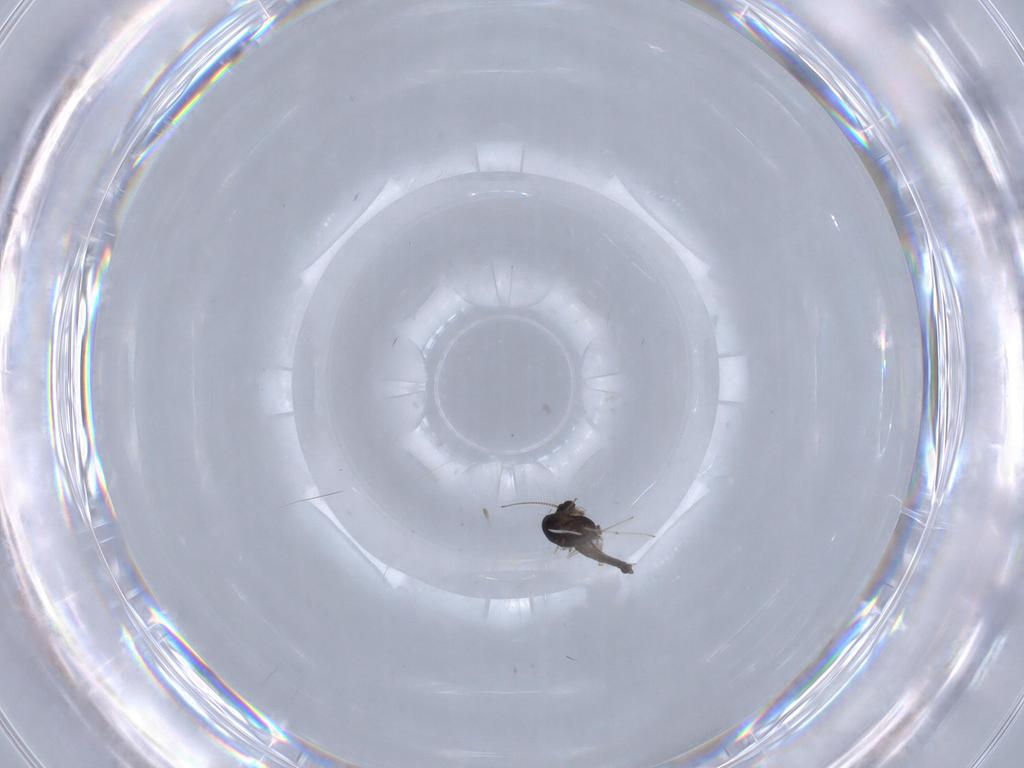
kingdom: Animalia
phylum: Arthropoda
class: Insecta
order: Diptera
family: Chironomidae
